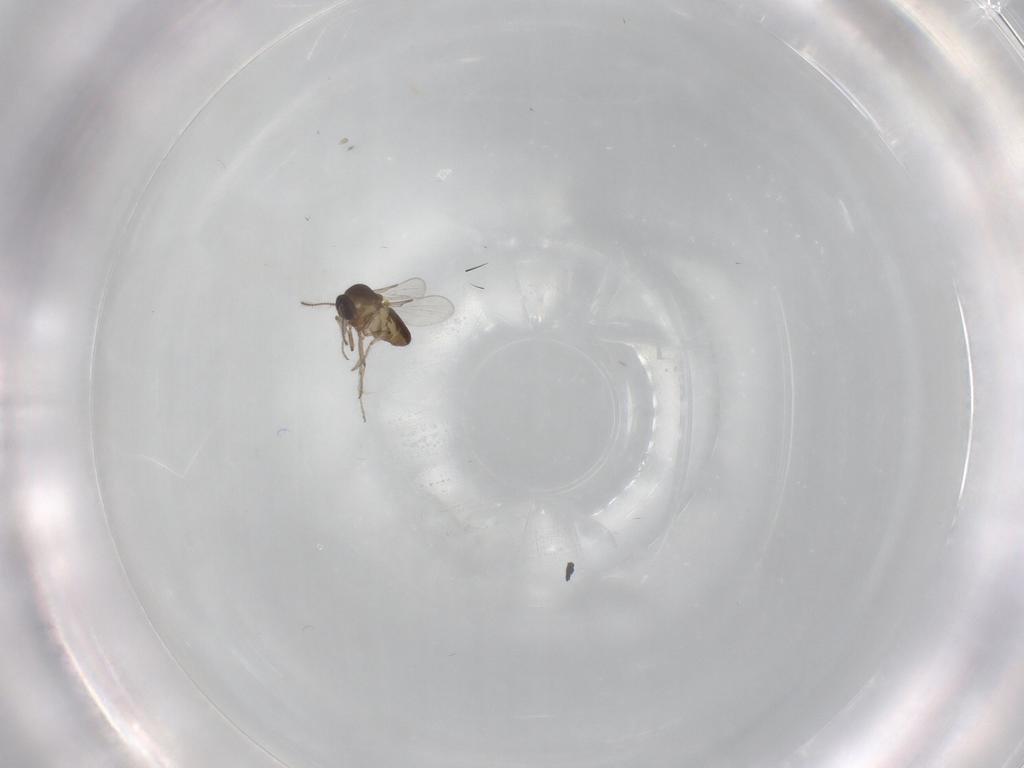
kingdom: Animalia
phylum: Arthropoda
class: Insecta
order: Diptera
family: Ceratopogonidae
